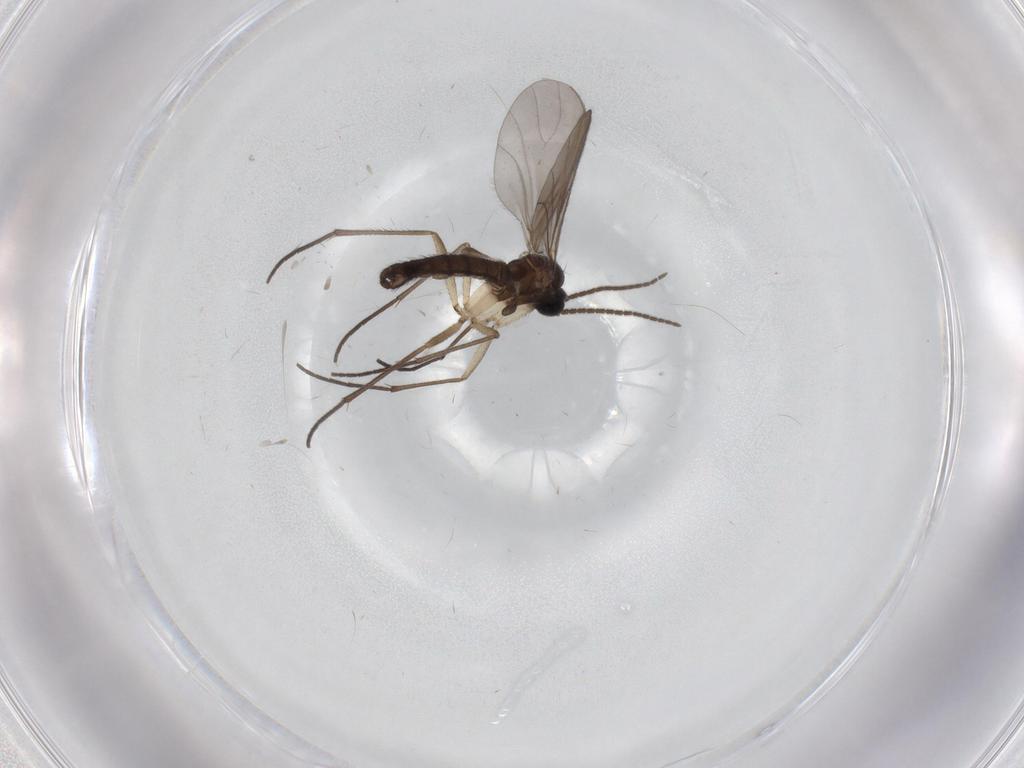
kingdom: Animalia
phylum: Arthropoda
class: Insecta
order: Diptera
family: Sciaridae
